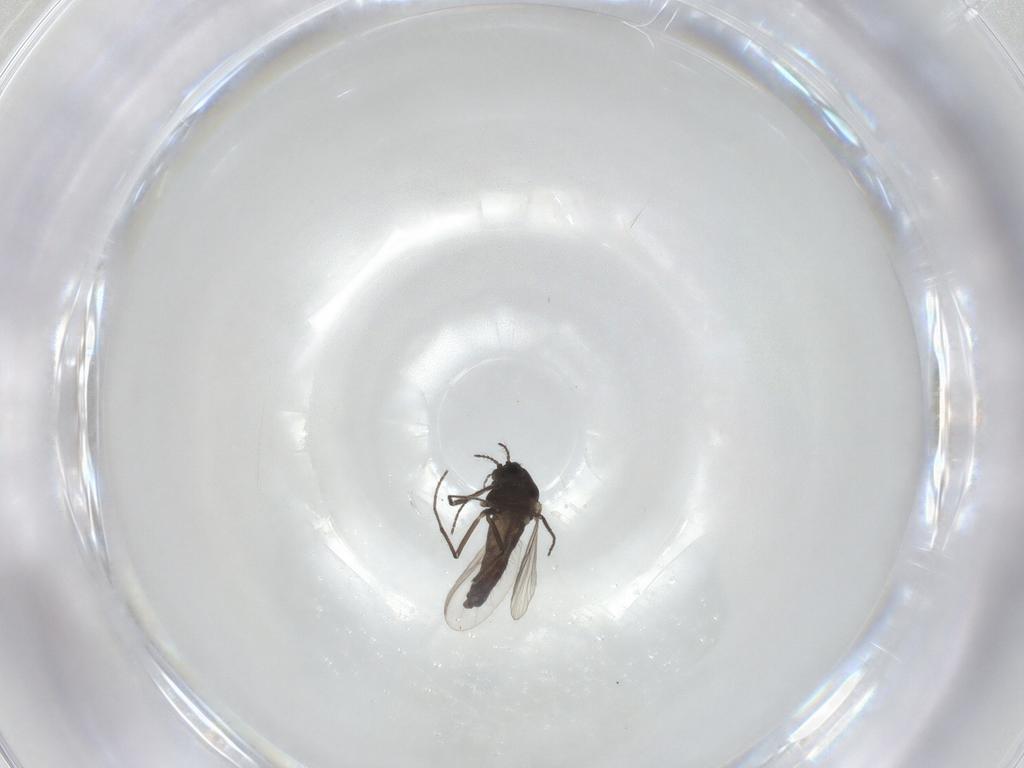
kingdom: Animalia
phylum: Arthropoda
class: Insecta
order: Diptera
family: Chironomidae
